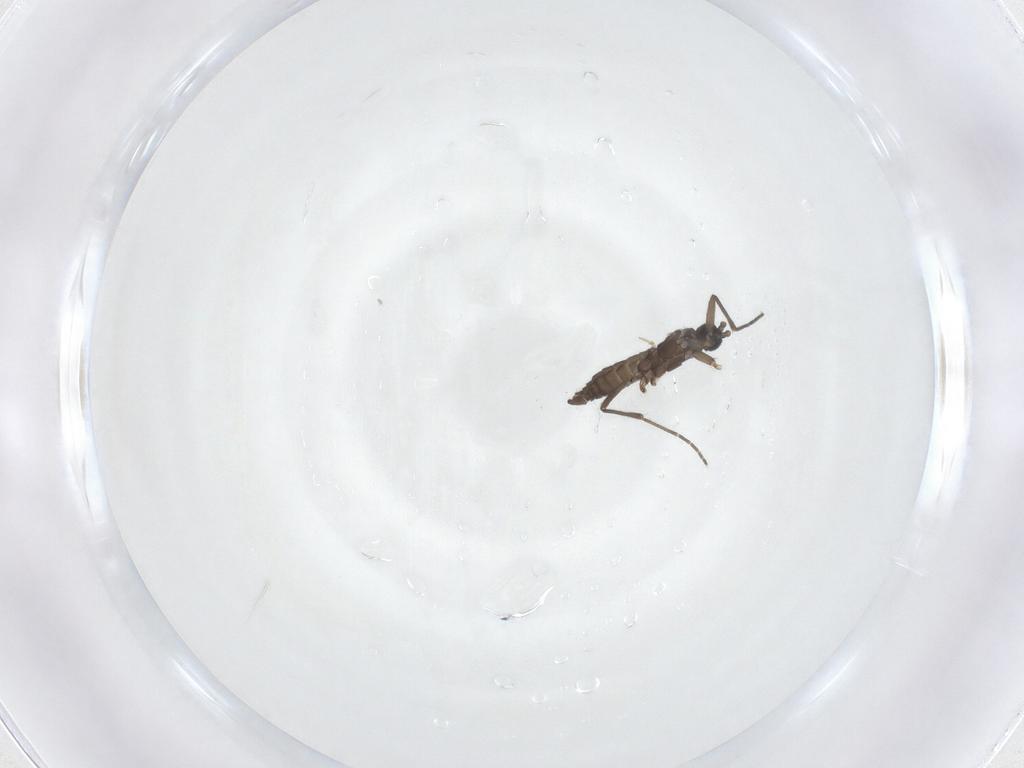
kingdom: Animalia
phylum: Arthropoda
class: Insecta
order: Diptera
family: Sciaridae
